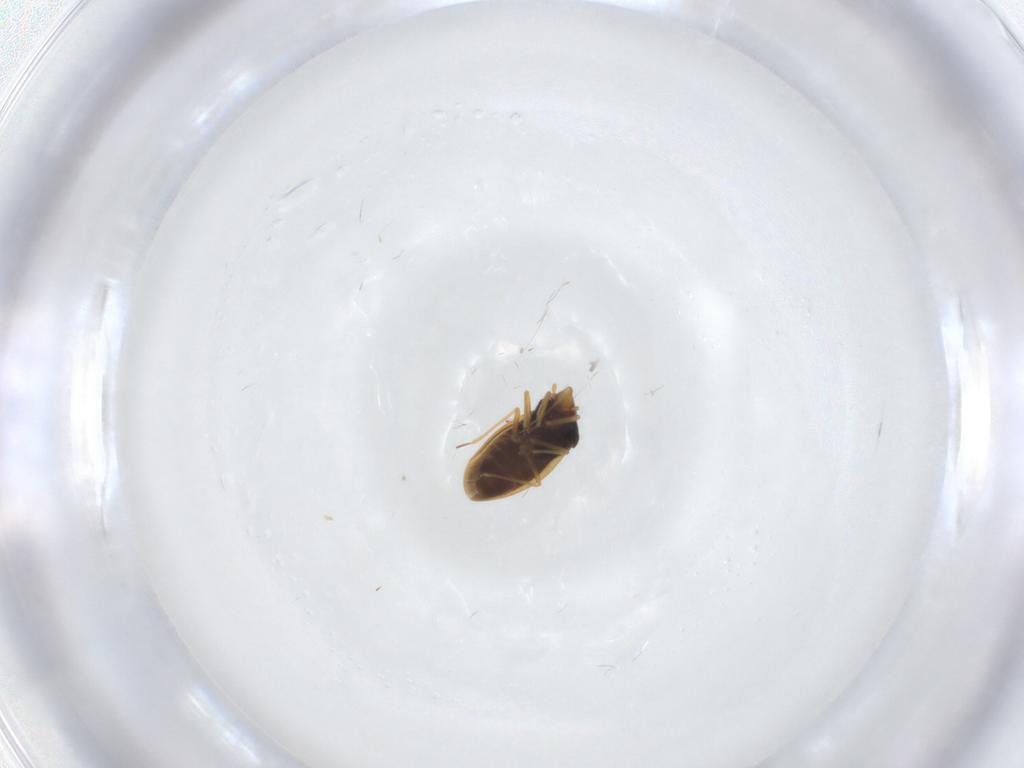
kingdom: Animalia
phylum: Arthropoda
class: Insecta
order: Hemiptera
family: Schizopteridae
